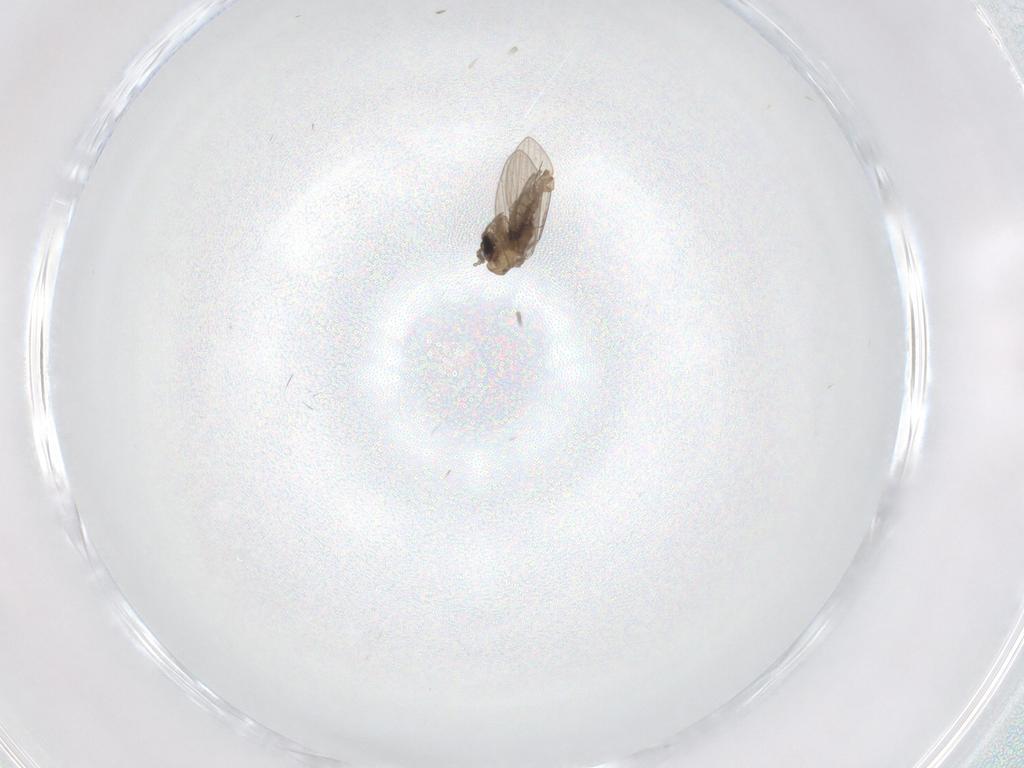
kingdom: Animalia
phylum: Arthropoda
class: Insecta
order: Diptera
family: Psychodidae
